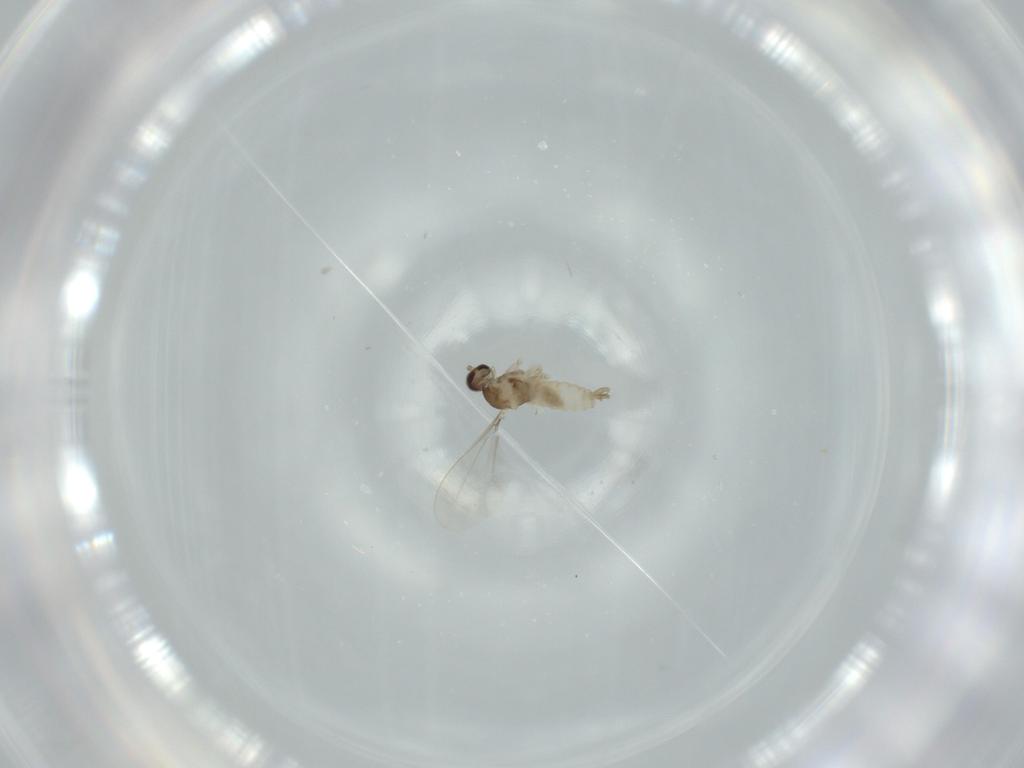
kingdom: Animalia
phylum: Arthropoda
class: Insecta
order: Diptera
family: Cecidomyiidae
